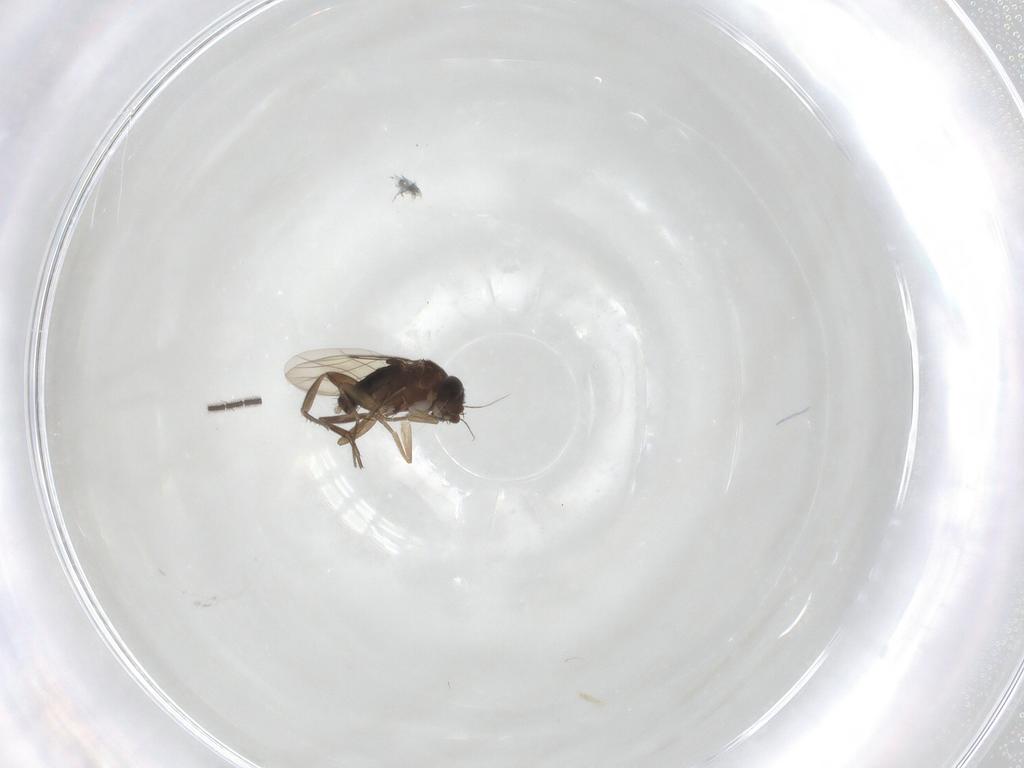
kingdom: Animalia
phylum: Arthropoda
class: Insecta
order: Diptera
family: Phoridae
